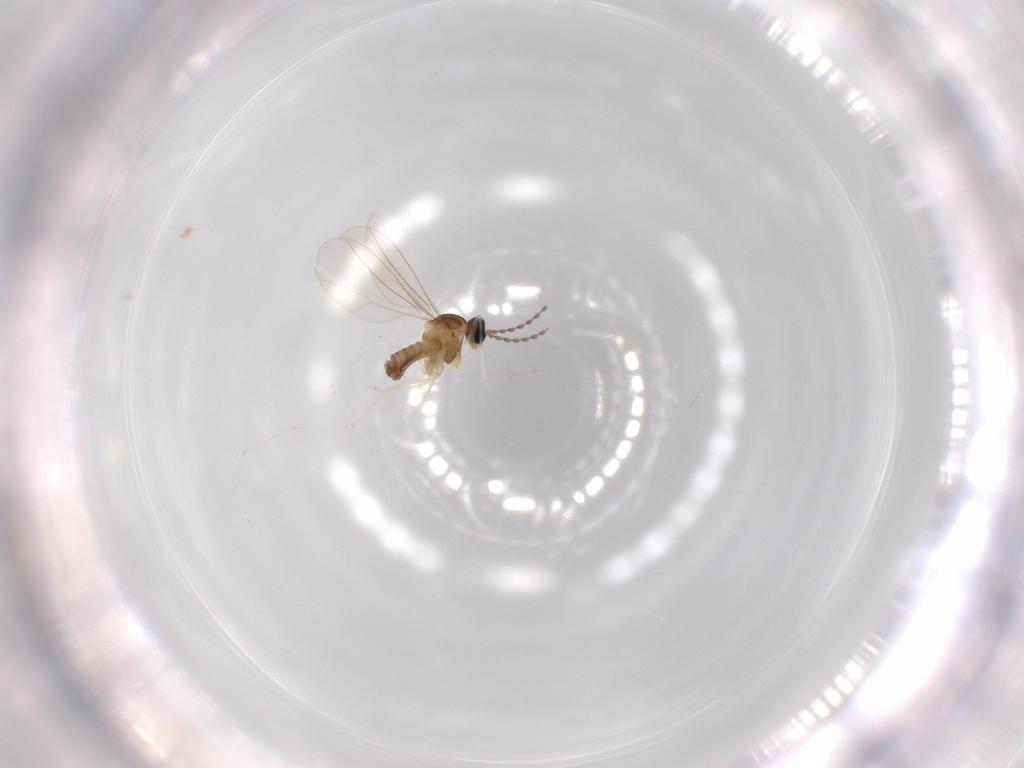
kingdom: Animalia
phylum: Arthropoda
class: Insecta
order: Diptera
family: Cecidomyiidae
